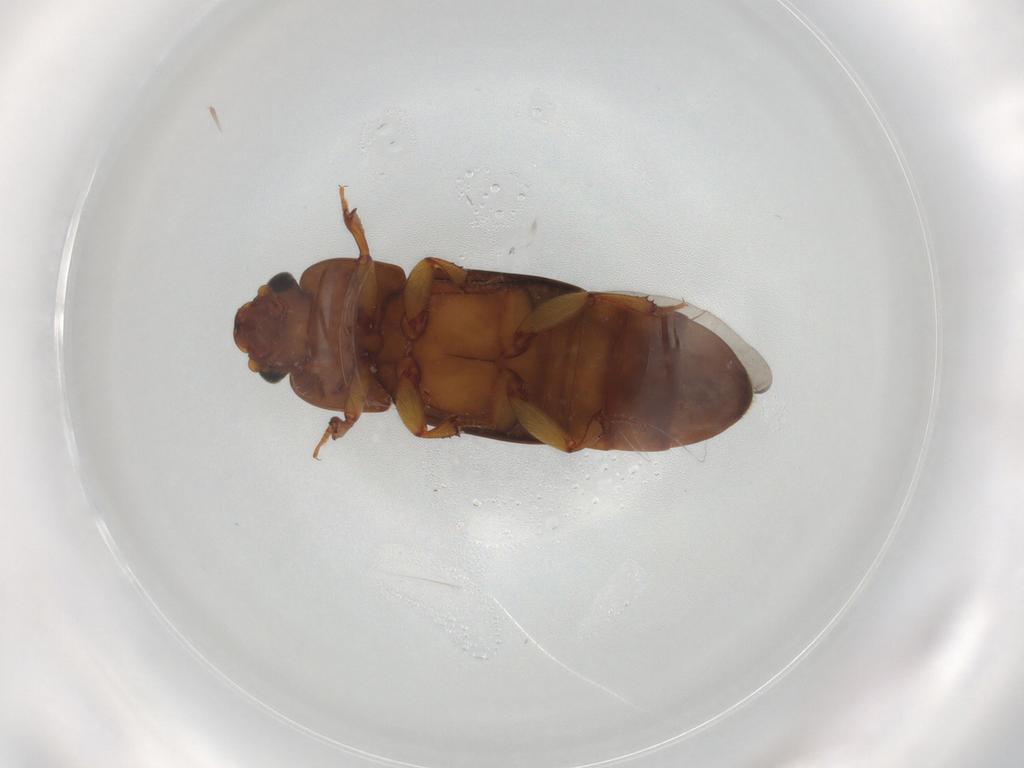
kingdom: Animalia
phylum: Arthropoda
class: Insecta
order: Coleoptera
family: Nitidulidae
